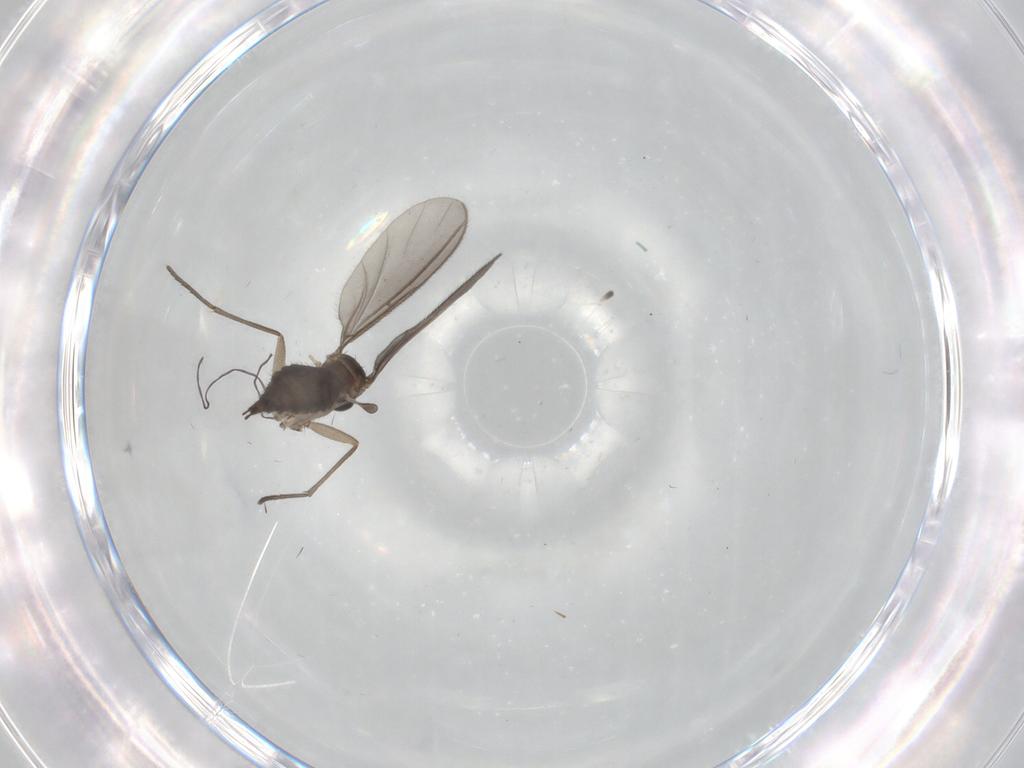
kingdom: Animalia
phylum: Arthropoda
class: Insecta
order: Diptera
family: Sciaridae
